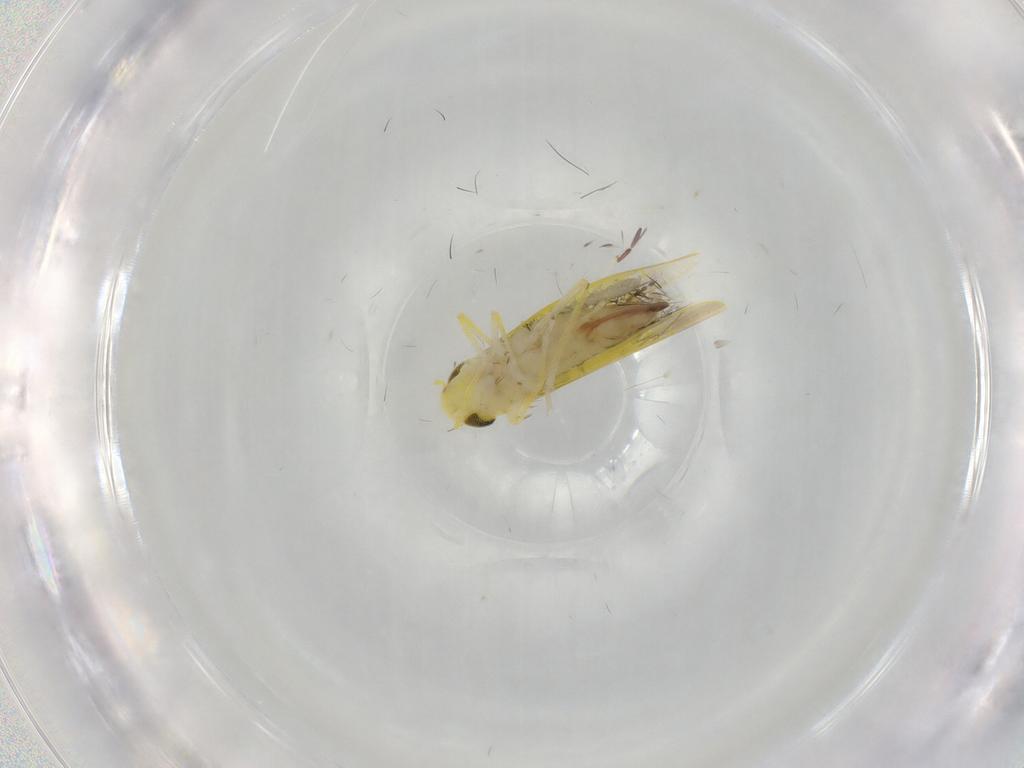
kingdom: Animalia
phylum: Arthropoda
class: Insecta
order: Hemiptera
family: Cicadellidae
